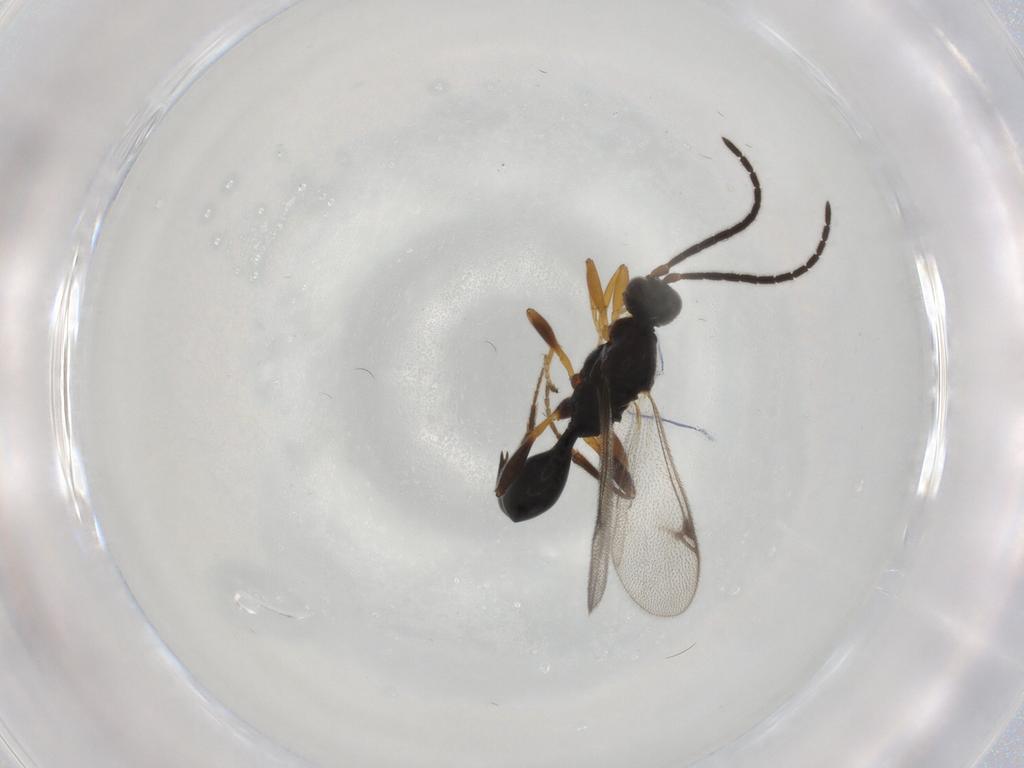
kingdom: Animalia
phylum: Arthropoda
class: Insecta
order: Hymenoptera
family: Proctotrupidae
